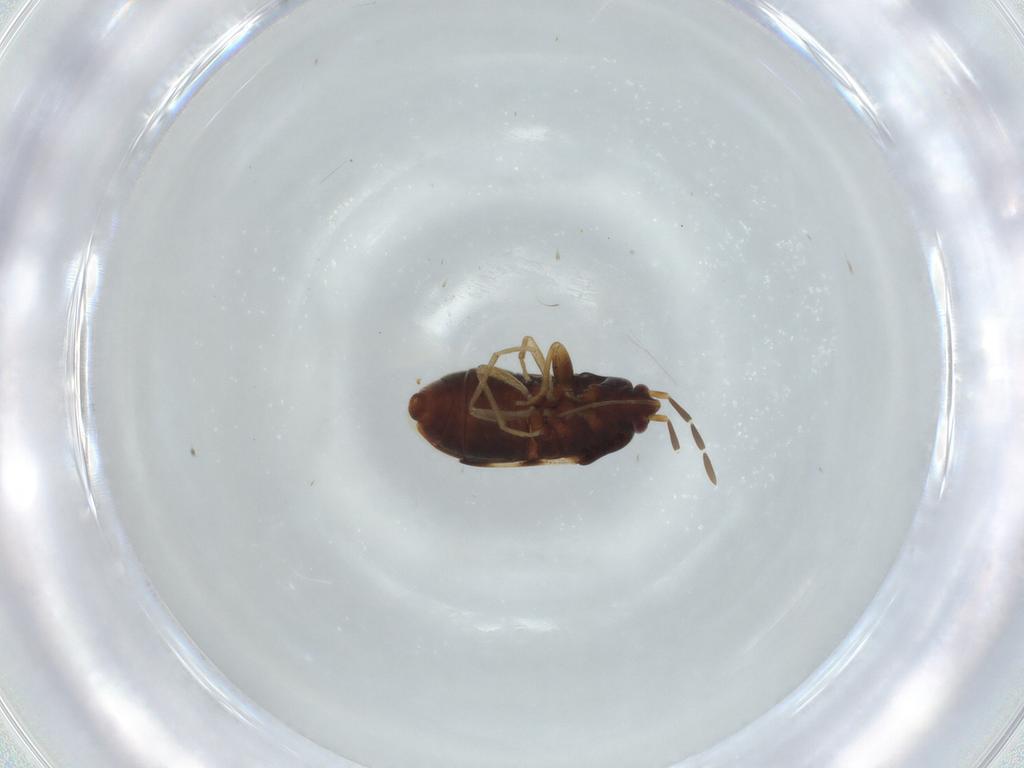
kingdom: Animalia
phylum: Arthropoda
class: Insecta
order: Hemiptera
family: Rhyparochromidae
